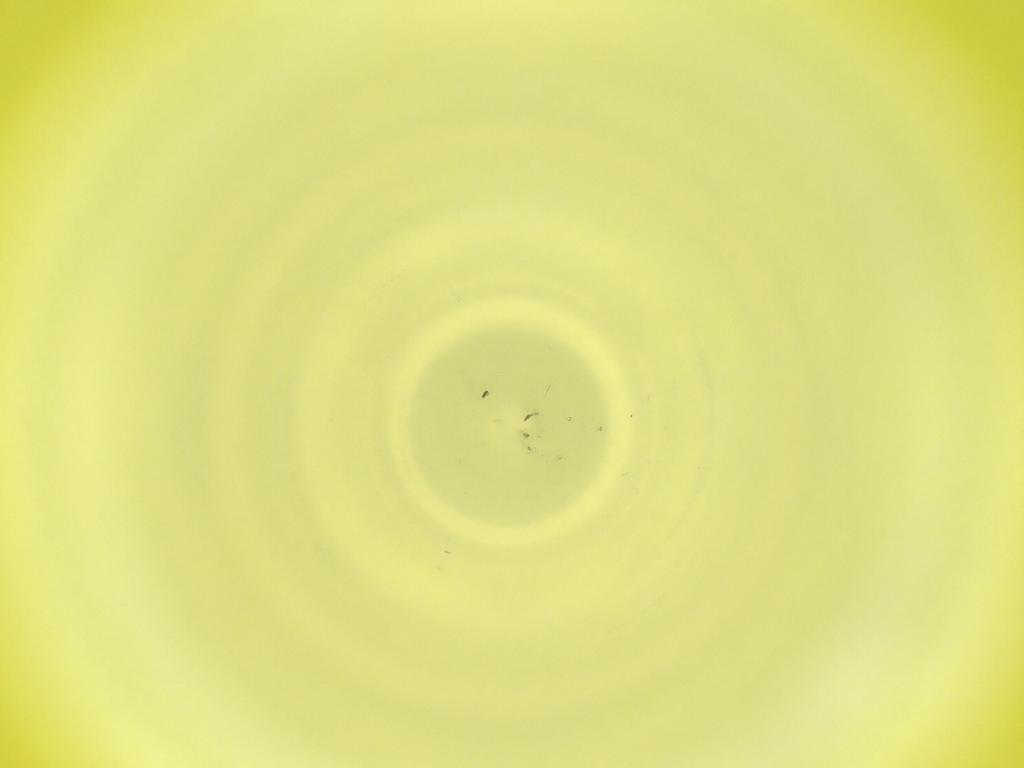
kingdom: Animalia
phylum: Arthropoda
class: Insecta
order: Diptera
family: Cecidomyiidae
